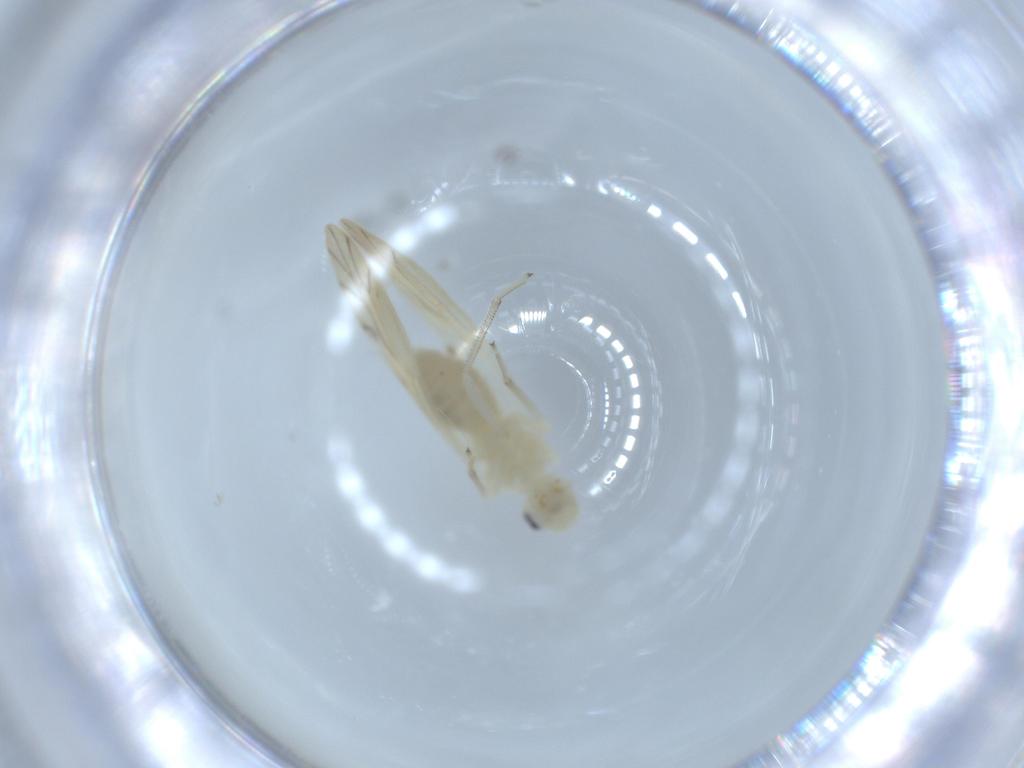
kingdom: Animalia
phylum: Arthropoda
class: Insecta
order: Psocodea
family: Caeciliusidae
